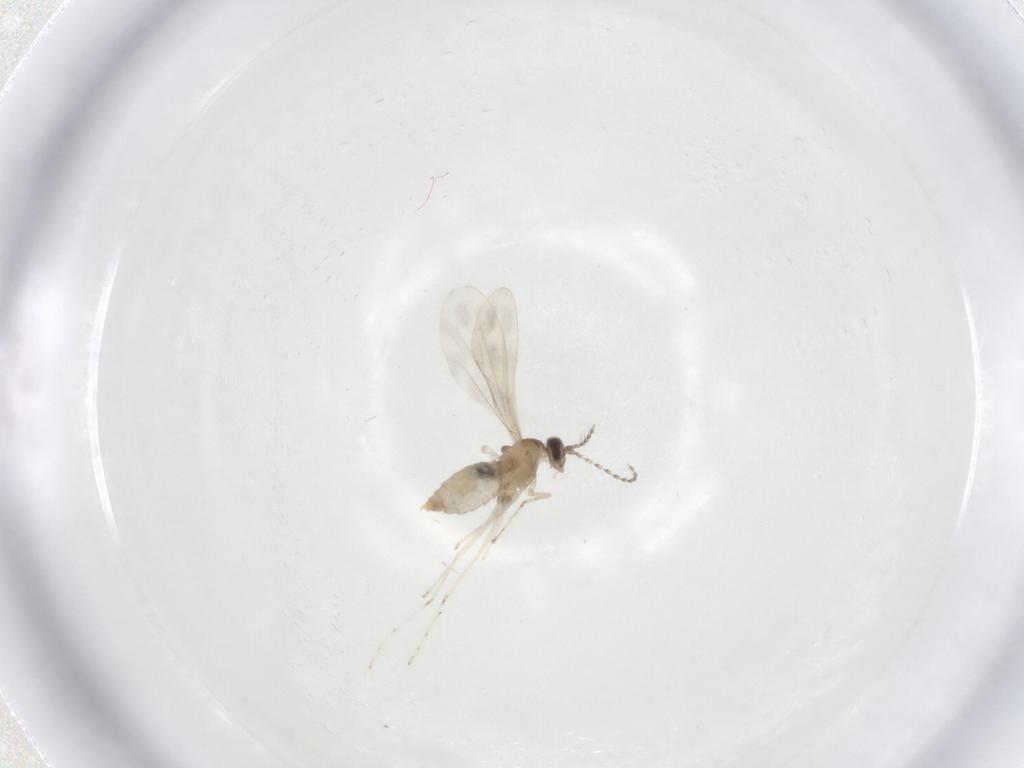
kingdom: Animalia
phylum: Arthropoda
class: Insecta
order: Diptera
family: Cecidomyiidae
